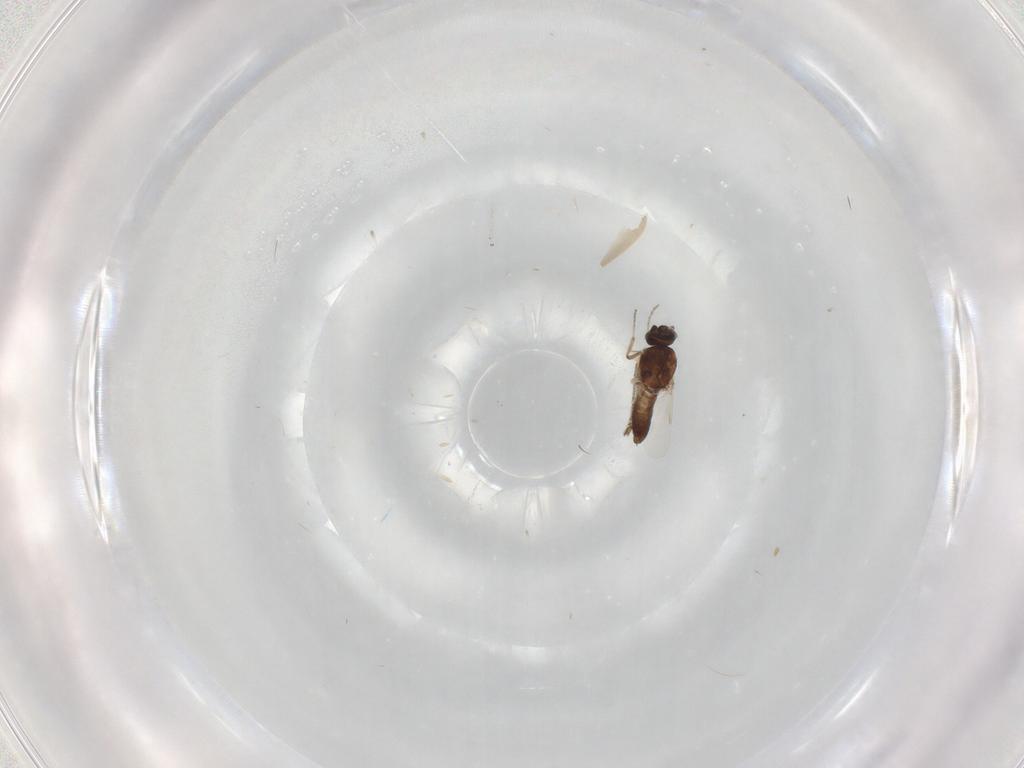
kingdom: Animalia
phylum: Arthropoda
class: Insecta
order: Diptera
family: Ceratopogonidae
